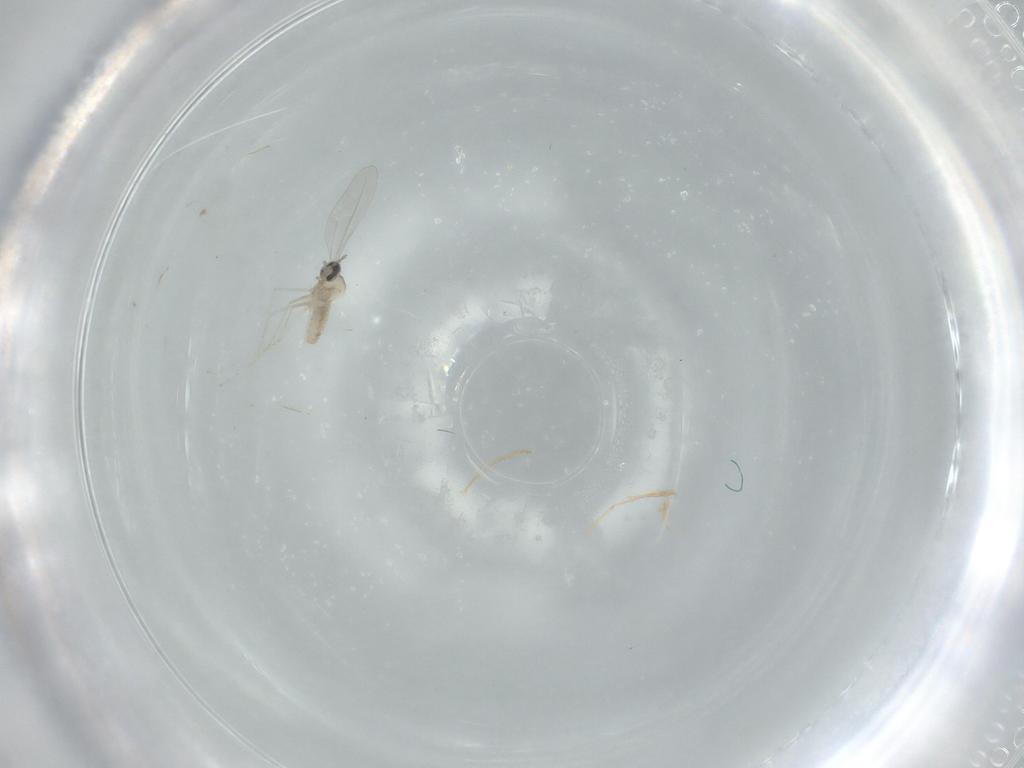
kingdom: Animalia
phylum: Arthropoda
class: Insecta
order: Diptera
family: Cecidomyiidae
